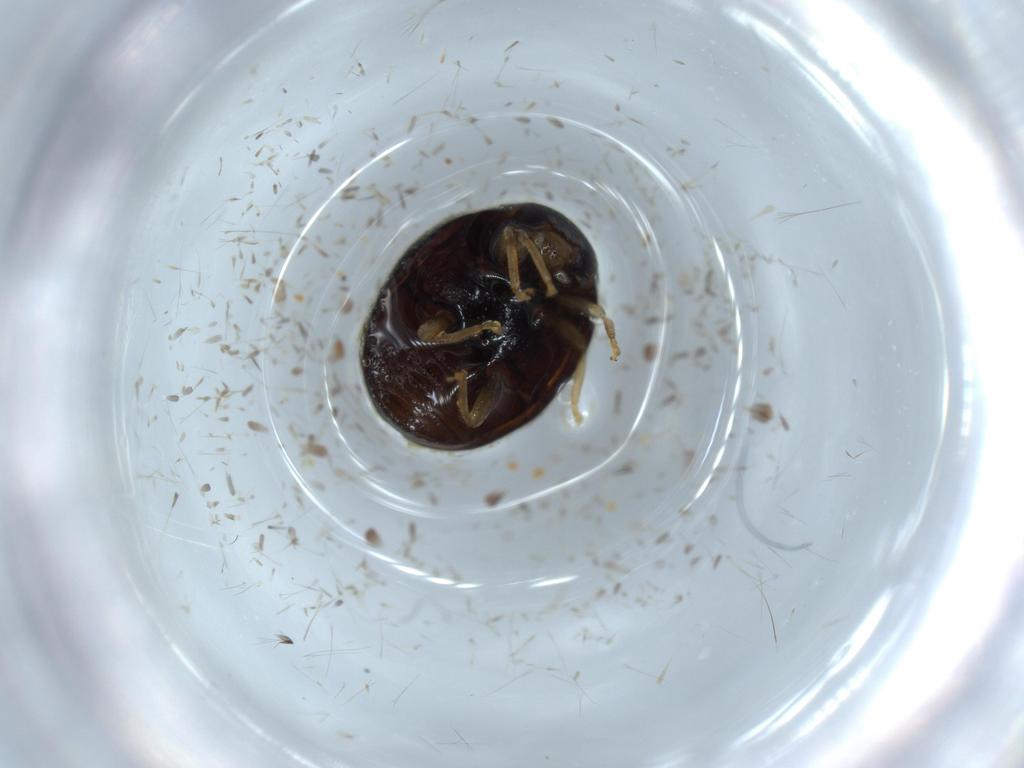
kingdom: Animalia
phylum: Arthropoda
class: Insecta
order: Coleoptera
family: Coccinellidae
